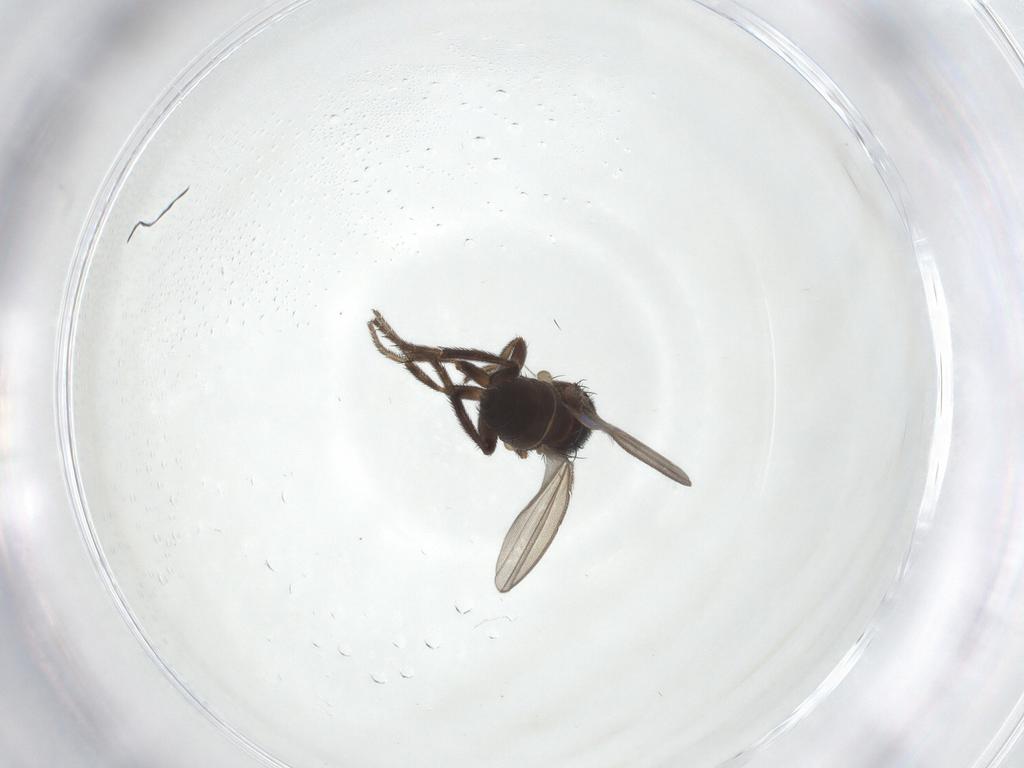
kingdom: Animalia
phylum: Arthropoda
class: Insecta
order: Diptera
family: Milichiidae
